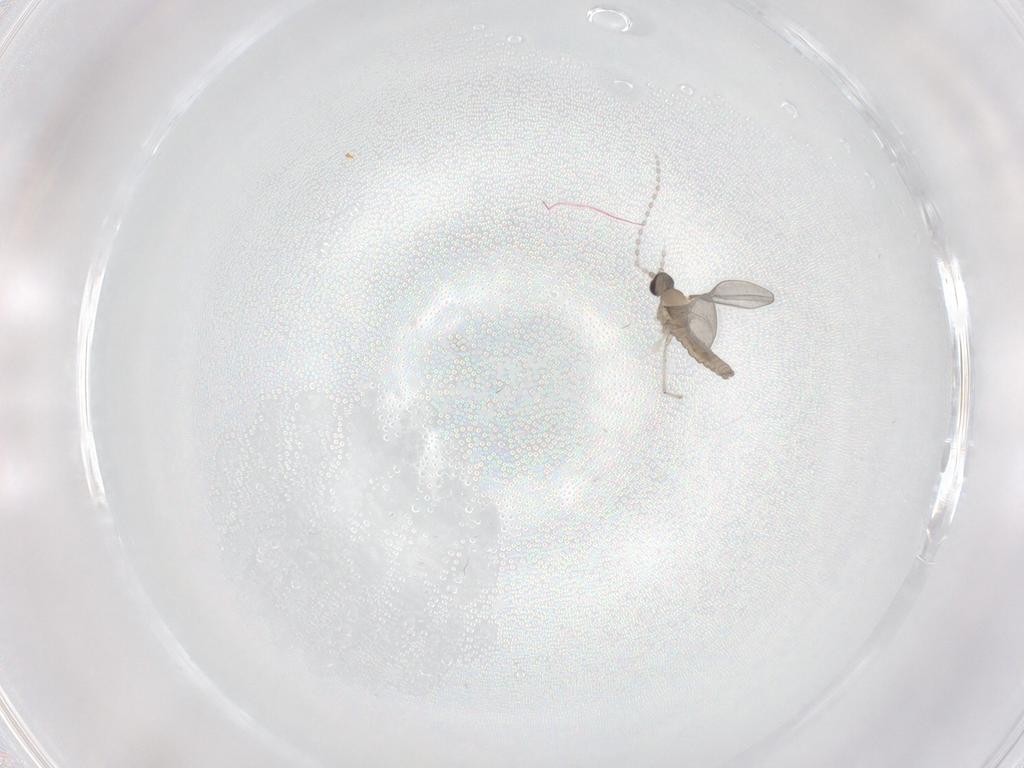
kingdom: Animalia
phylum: Arthropoda
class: Insecta
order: Diptera
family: Cecidomyiidae
